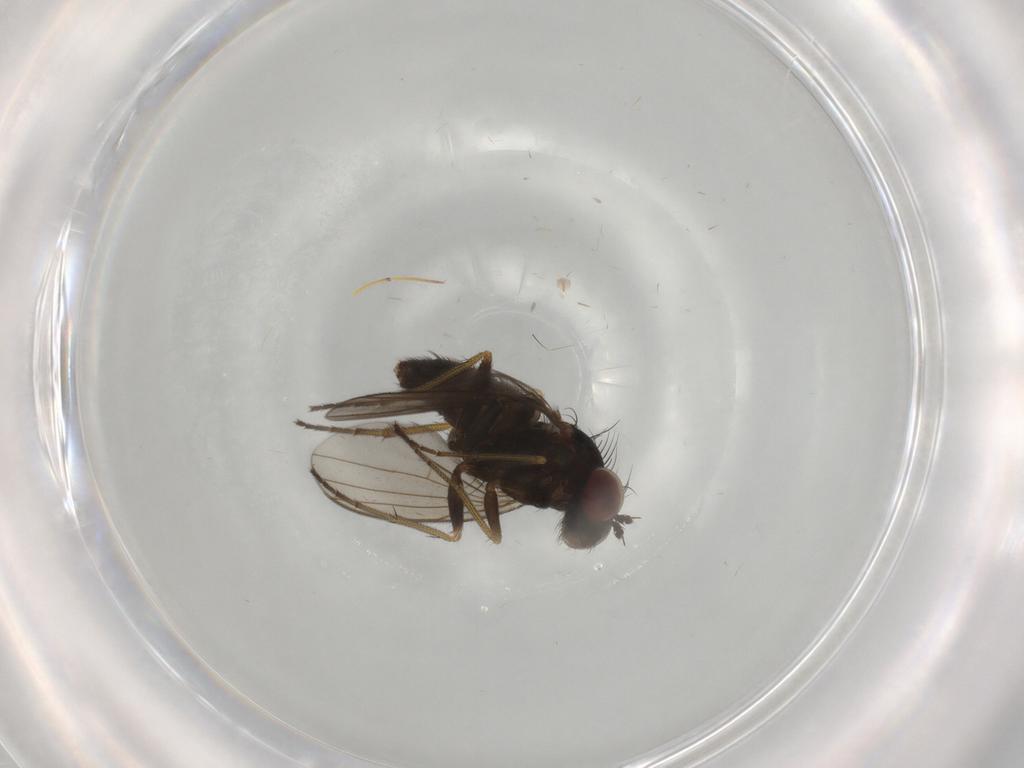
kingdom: Animalia
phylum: Arthropoda
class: Insecta
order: Diptera
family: Dolichopodidae
